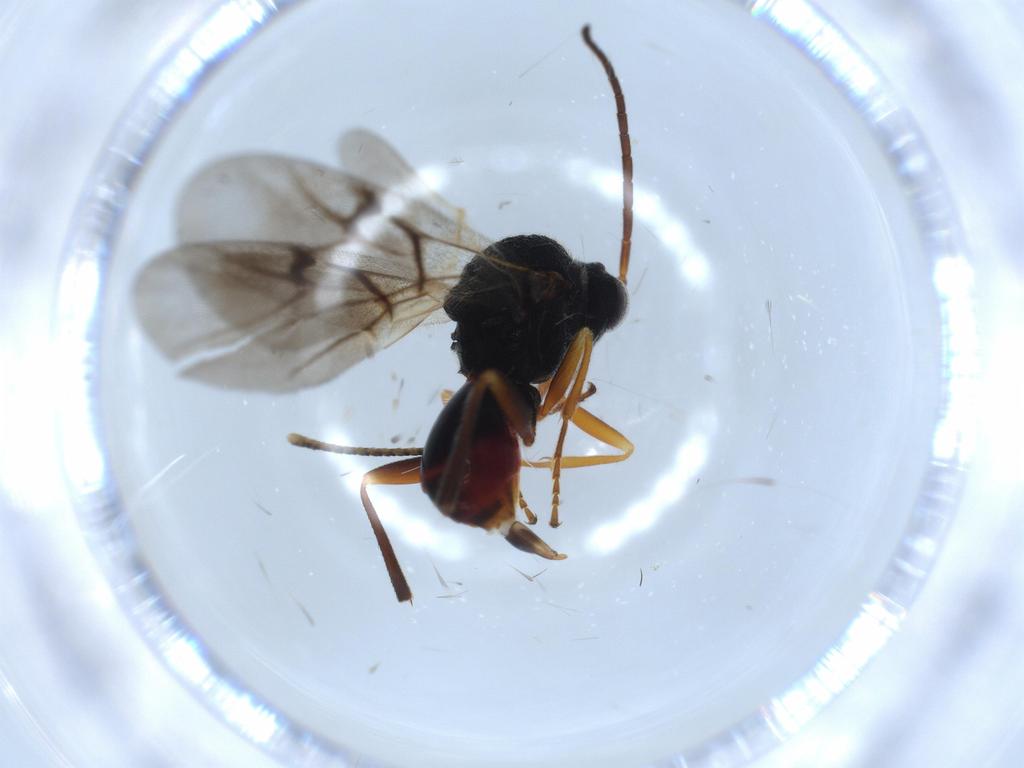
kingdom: Animalia
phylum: Arthropoda
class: Insecta
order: Hymenoptera
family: Cynipidae
